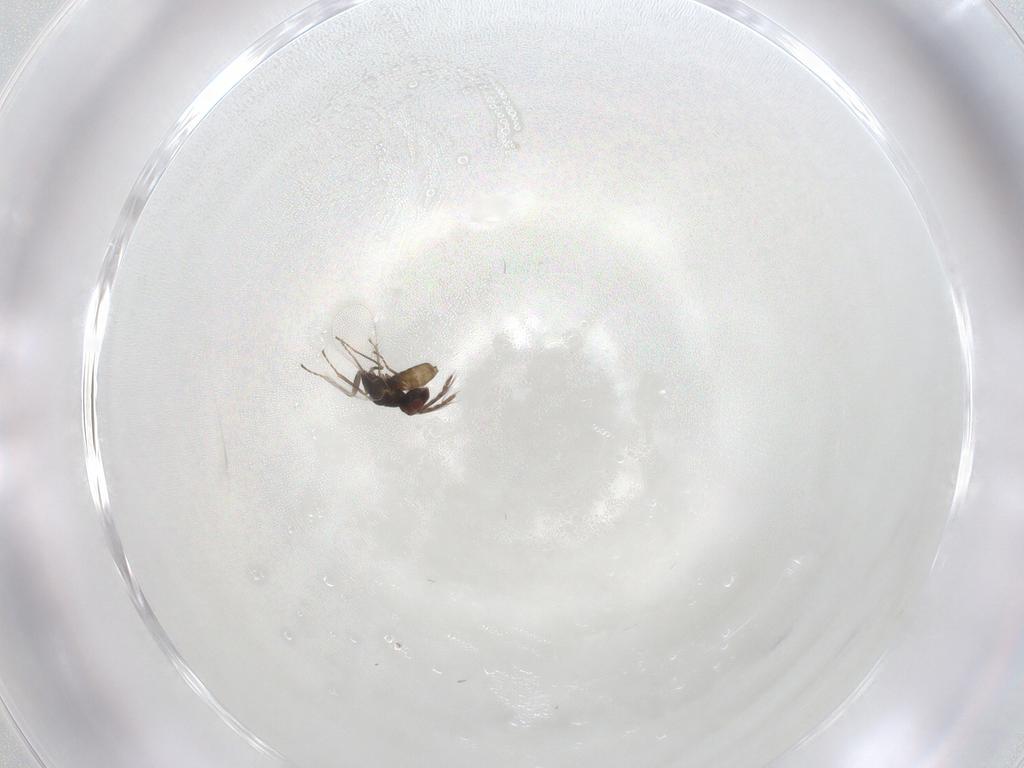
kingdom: Animalia
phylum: Arthropoda
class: Insecta
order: Hymenoptera
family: Eulophidae
